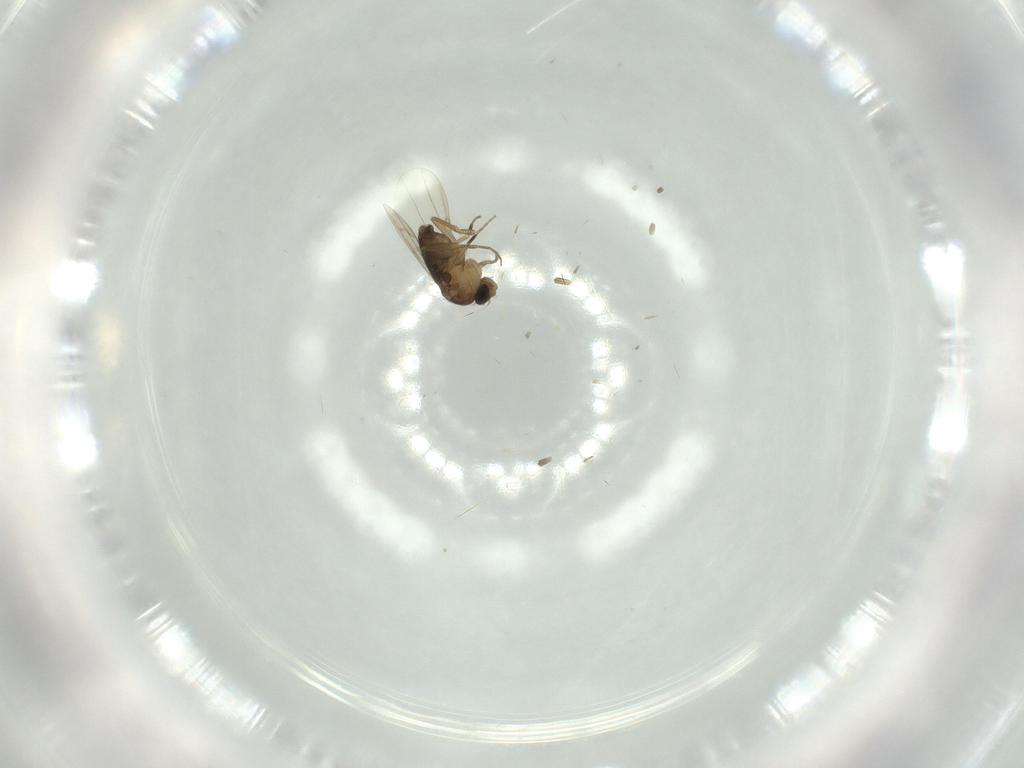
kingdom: Animalia
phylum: Arthropoda
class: Insecta
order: Diptera
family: Phoridae
